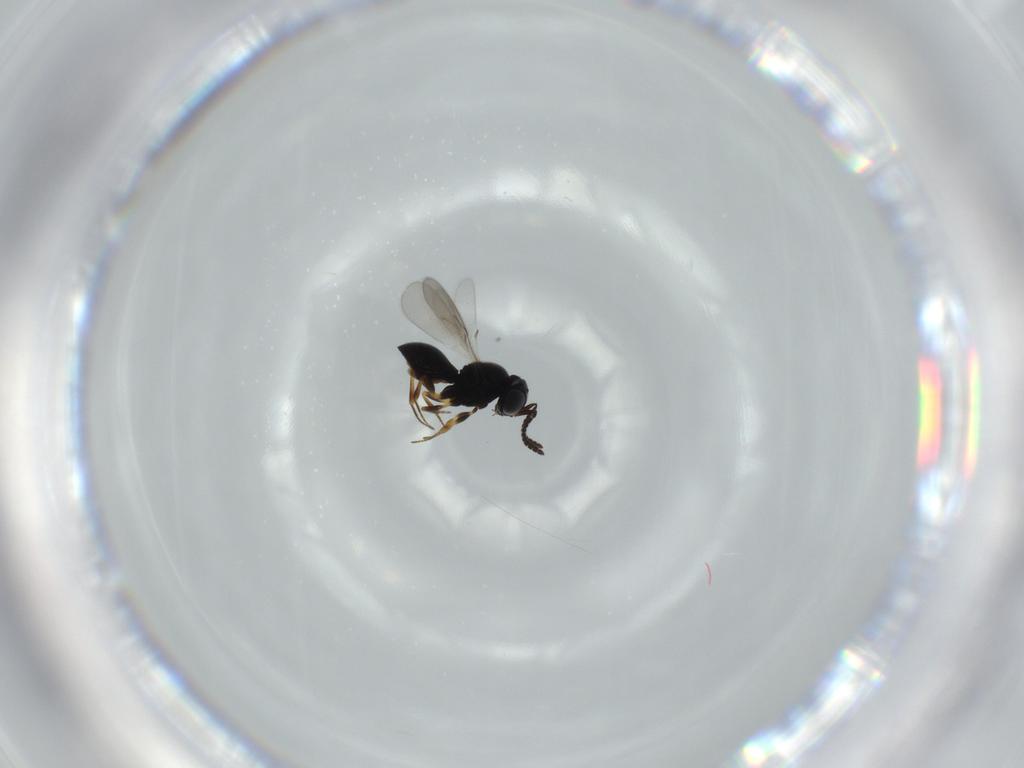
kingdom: Animalia
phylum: Arthropoda
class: Insecta
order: Hymenoptera
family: Scelionidae
